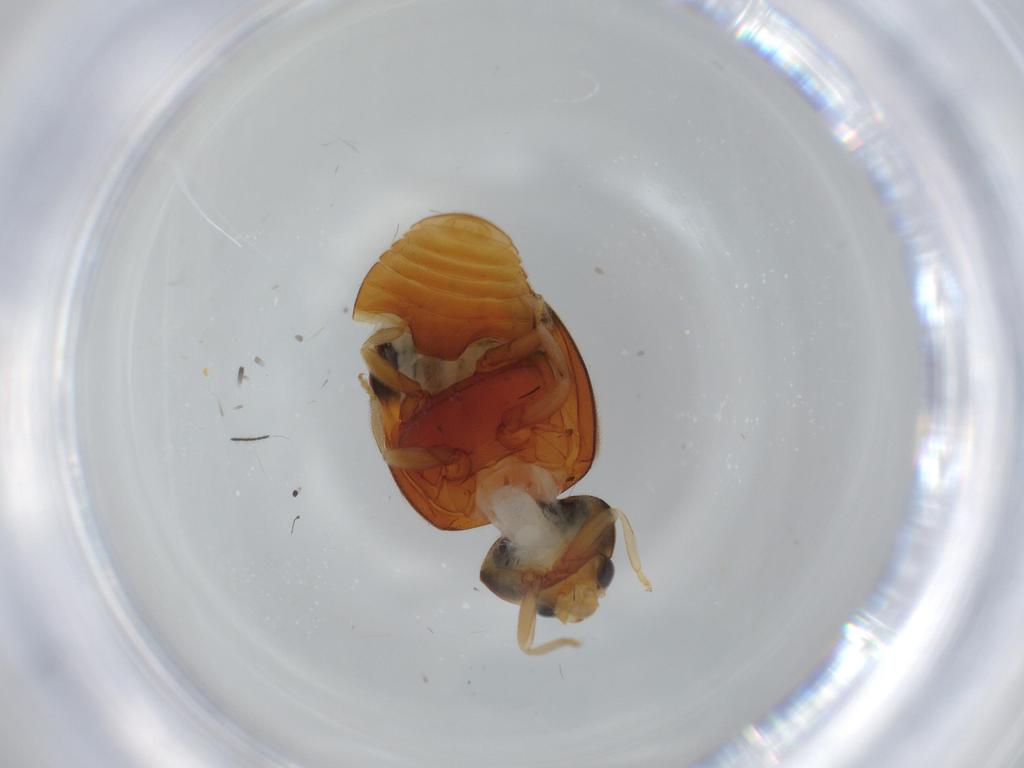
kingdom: Animalia
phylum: Arthropoda
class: Insecta
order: Coleoptera
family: Coccinellidae
